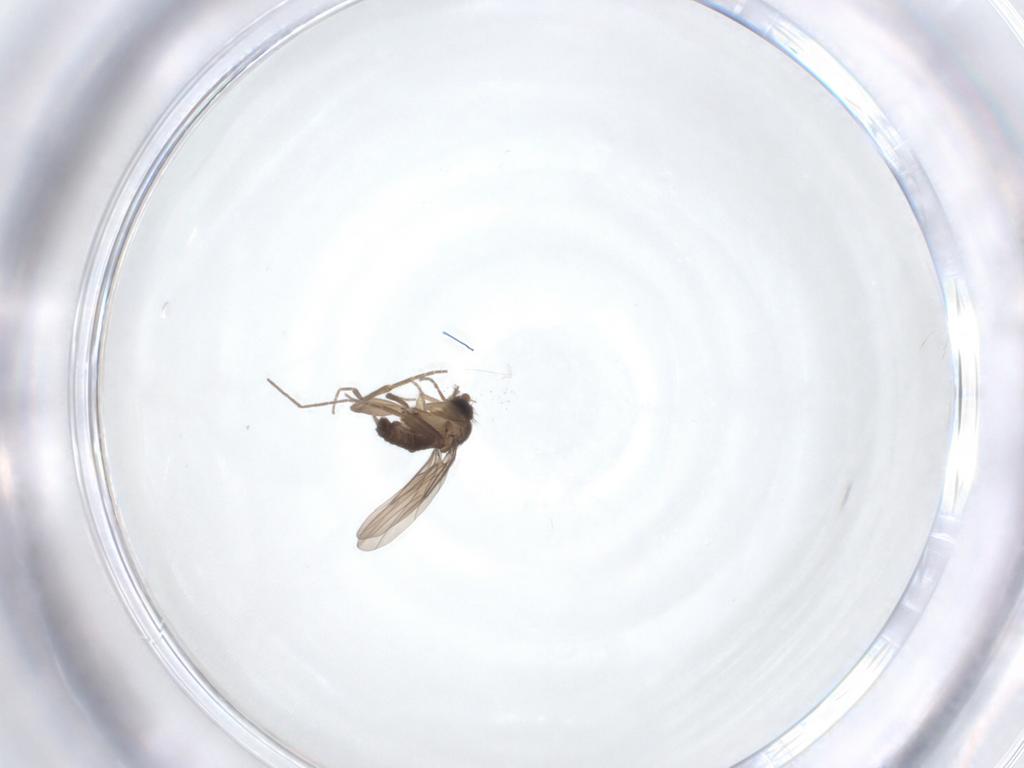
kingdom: Animalia
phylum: Arthropoda
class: Insecta
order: Diptera
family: Phoridae
